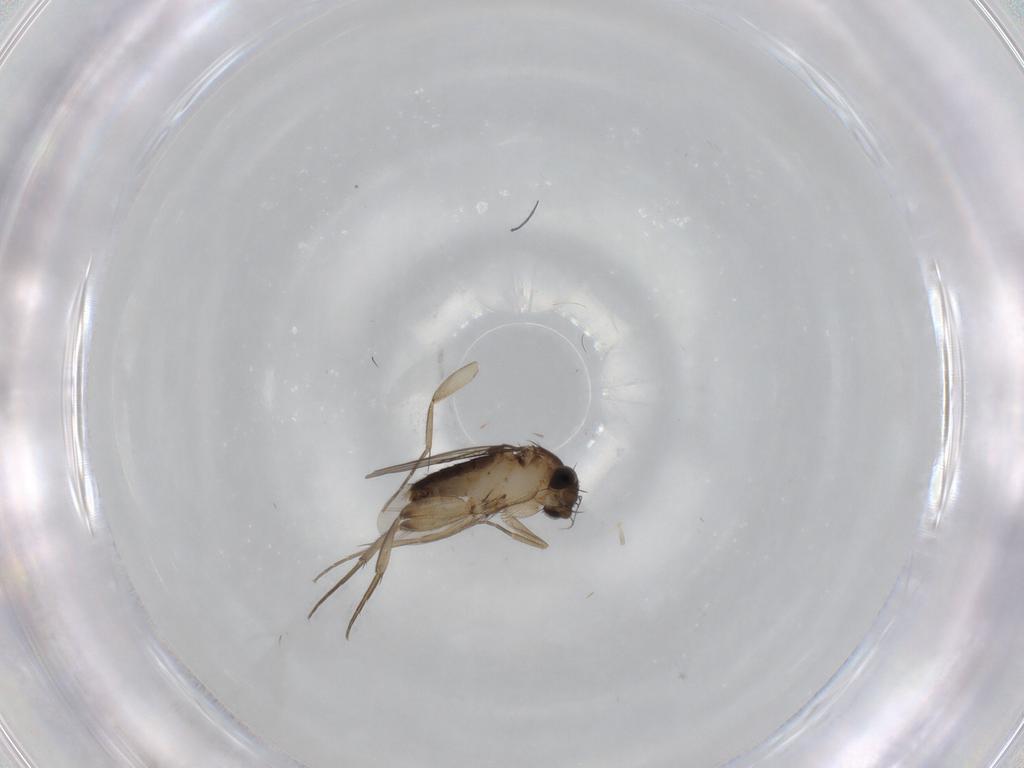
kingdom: Animalia
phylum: Arthropoda
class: Insecta
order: Diptera
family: Phoridae
